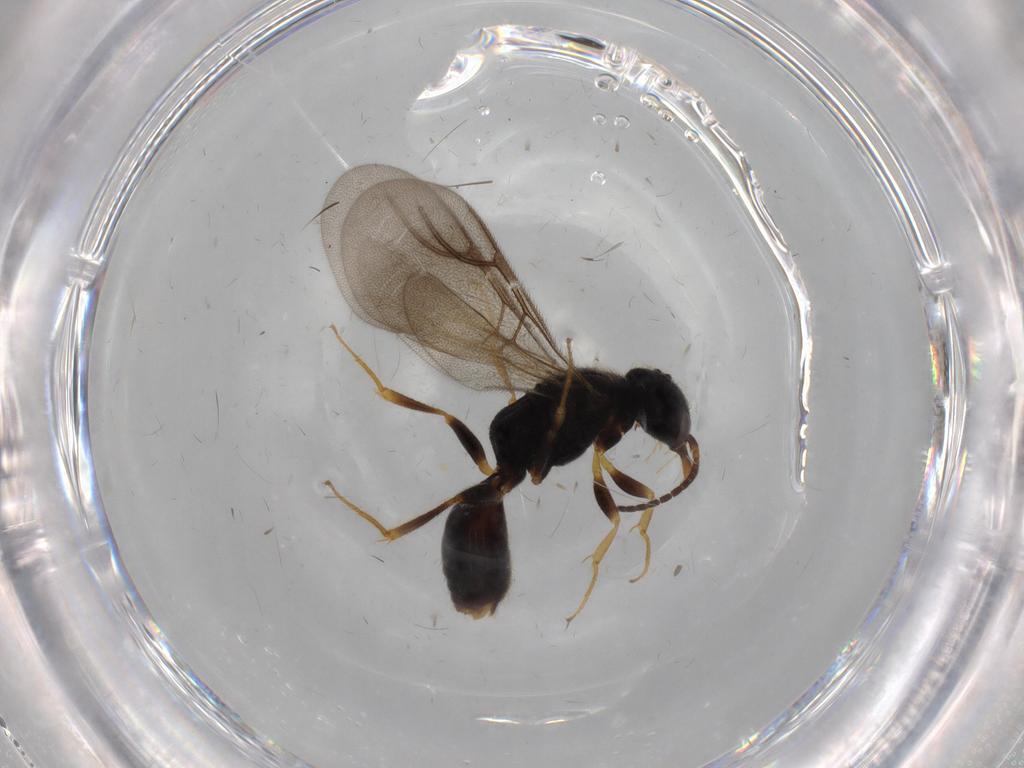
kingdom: Animalia
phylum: Arthropoda
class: Insecta
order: Hymenoptera
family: Bethylidae
